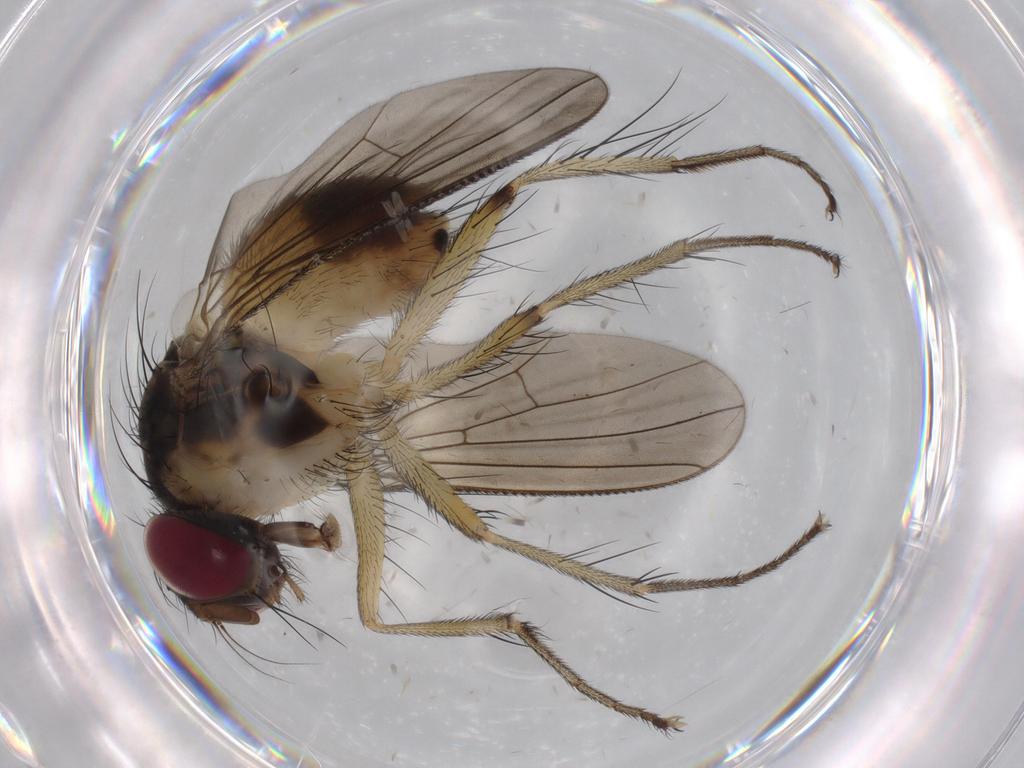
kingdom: Animalia
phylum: Arthropoda
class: Insecta
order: Diptera
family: Muscidae
